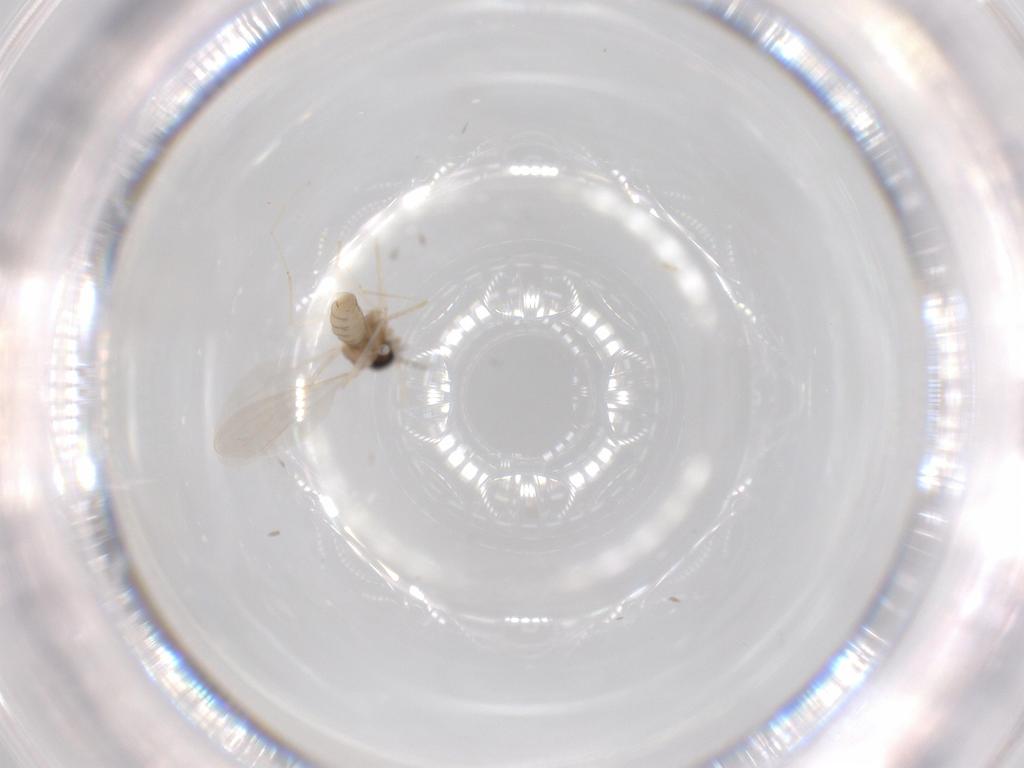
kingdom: Animalia
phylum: Arthropoda
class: Insecta
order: Diptera
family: Cecidomyiidae
